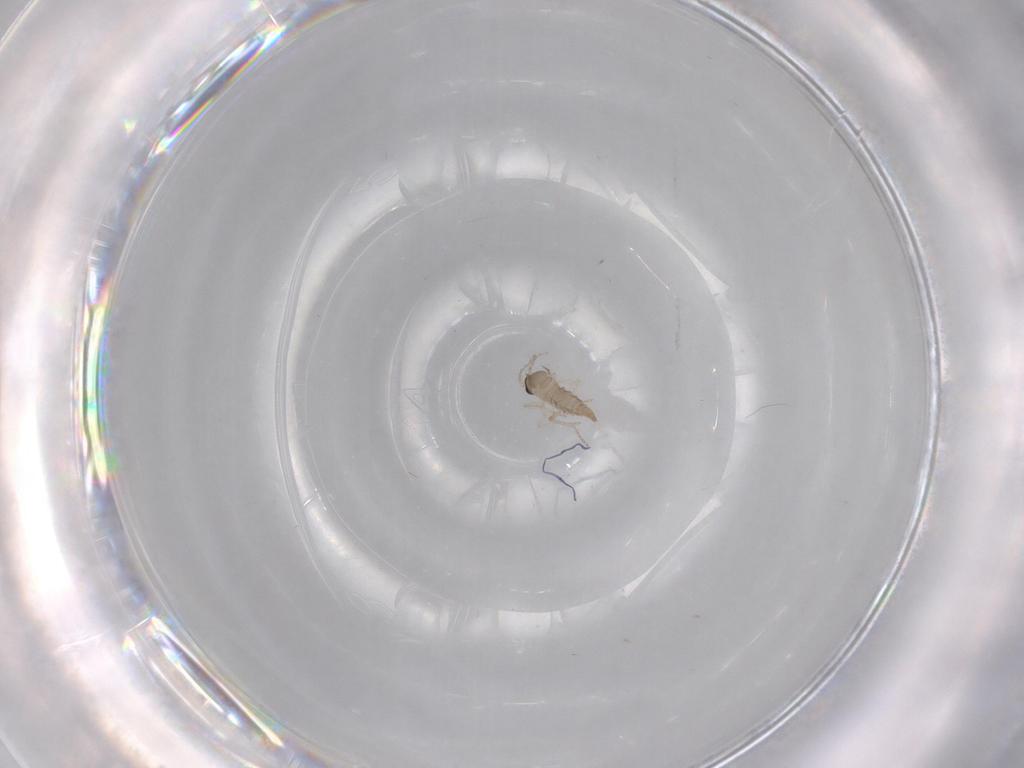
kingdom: Animalia
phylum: Arthropoda
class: Insecta
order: Diptera
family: Cecidomyiidae
